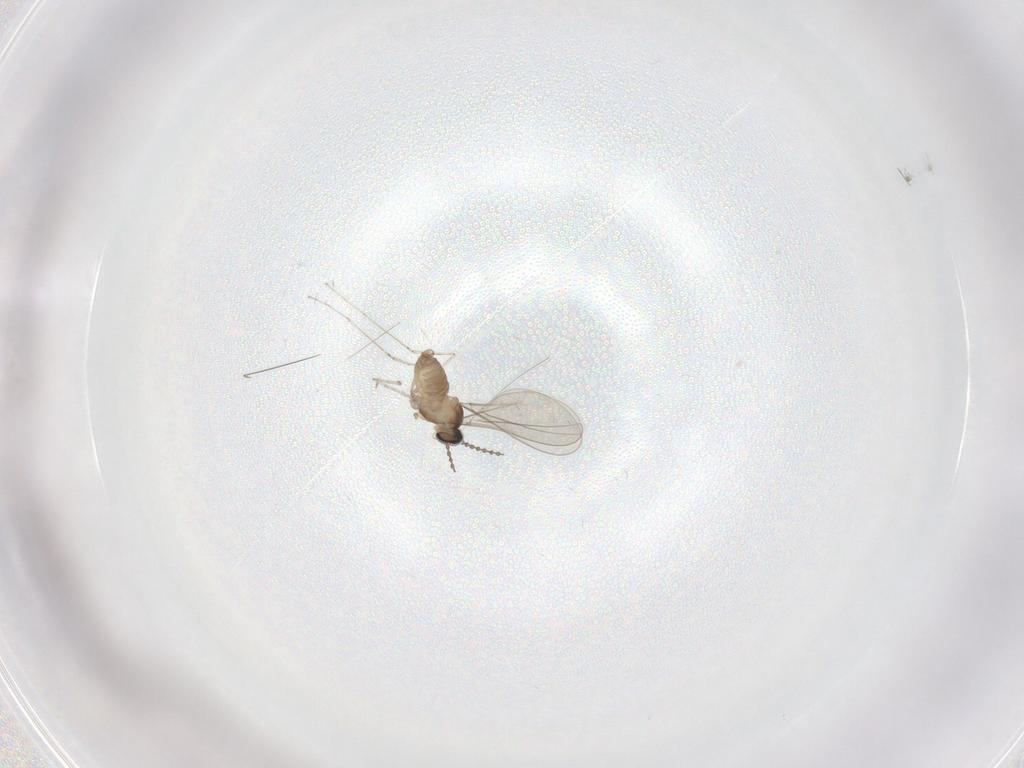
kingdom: Animalia
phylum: Arthropoda
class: Insecta
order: Diptera
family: Cecidomyiidae
